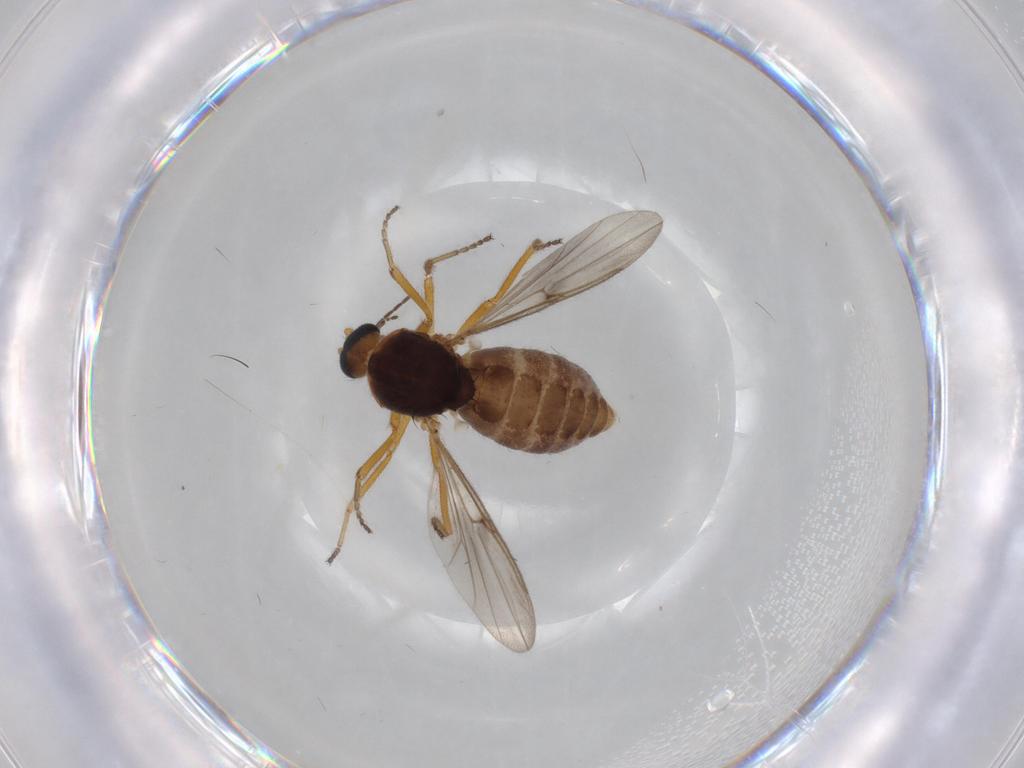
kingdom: Animalia
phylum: Arthropoda
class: Insecta
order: Diptera
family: Ceratopogonidae
